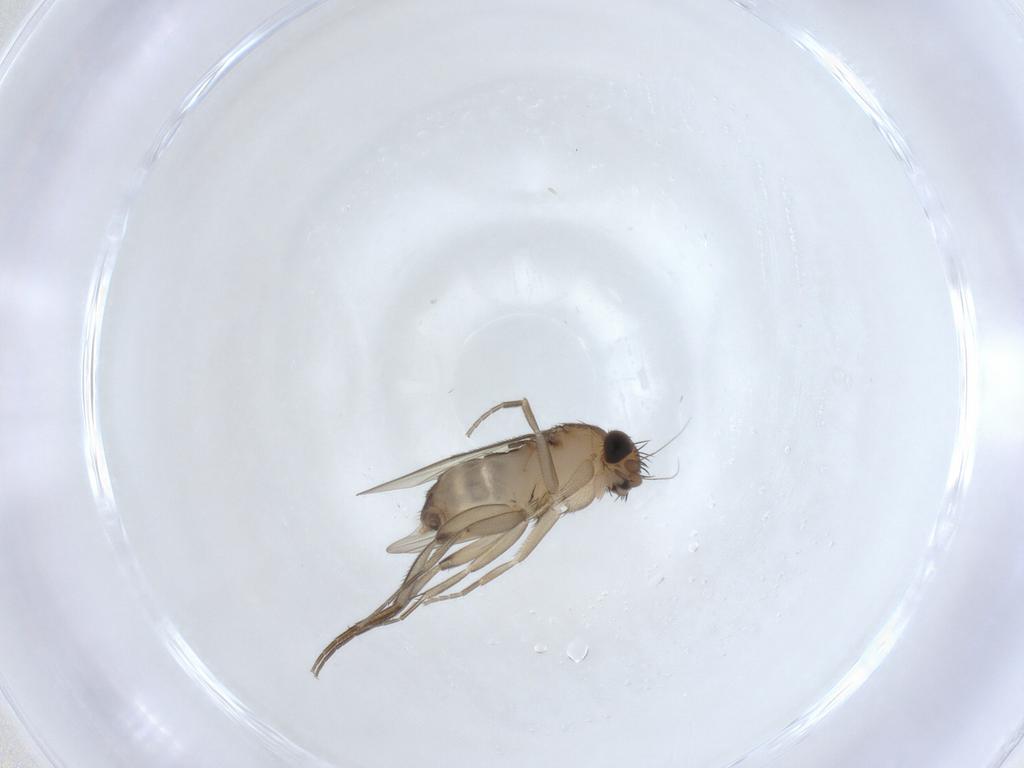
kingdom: Animalia
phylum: Arthropoda
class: Insecta
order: Diptera
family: Phoridae
